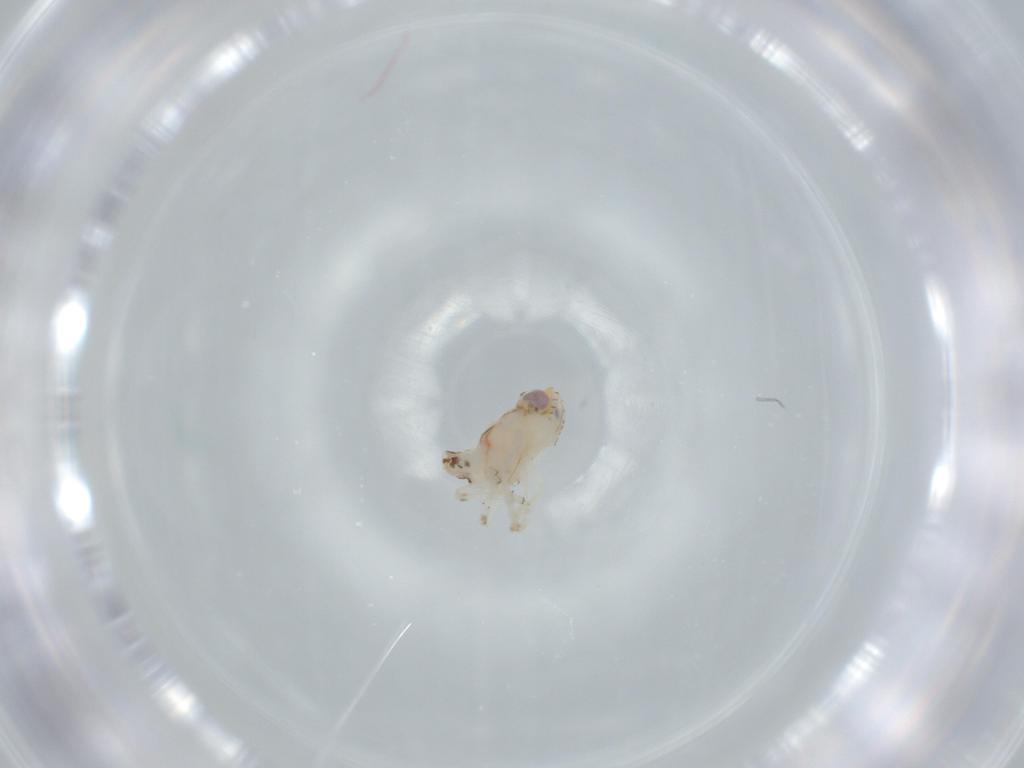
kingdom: Animalia
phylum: Arthropoda
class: Insecta
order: Hemiptera
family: Nogodinidae
